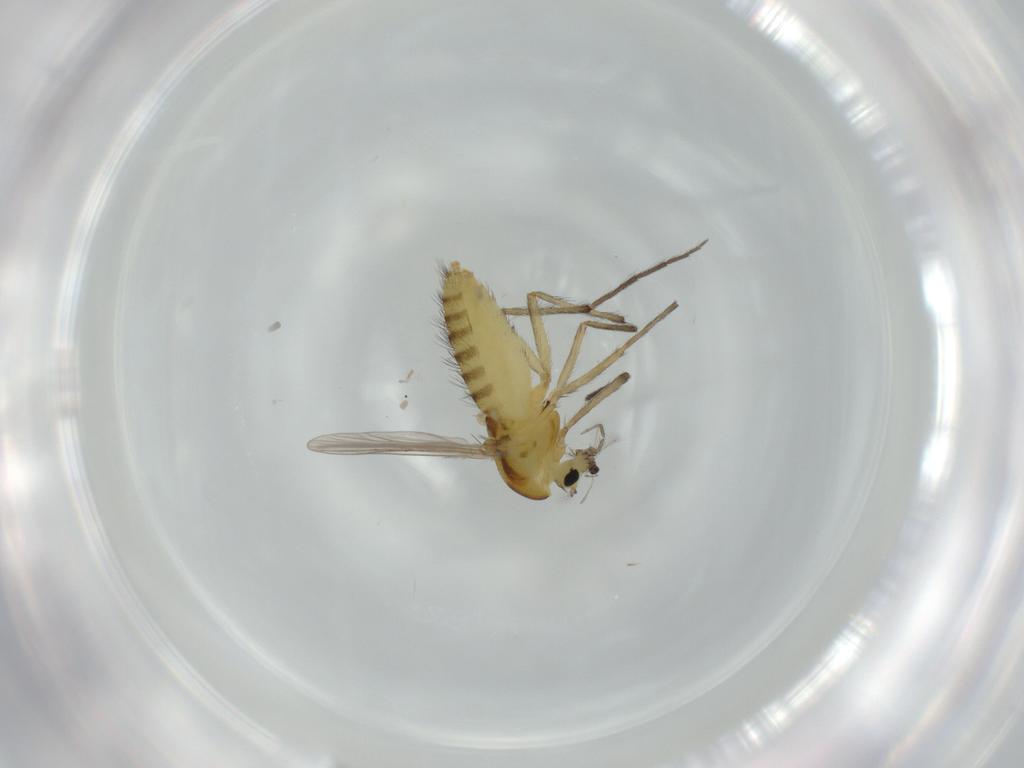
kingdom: Animalia
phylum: Arthropoda
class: Insecta
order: Diptera
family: Chironomidae
